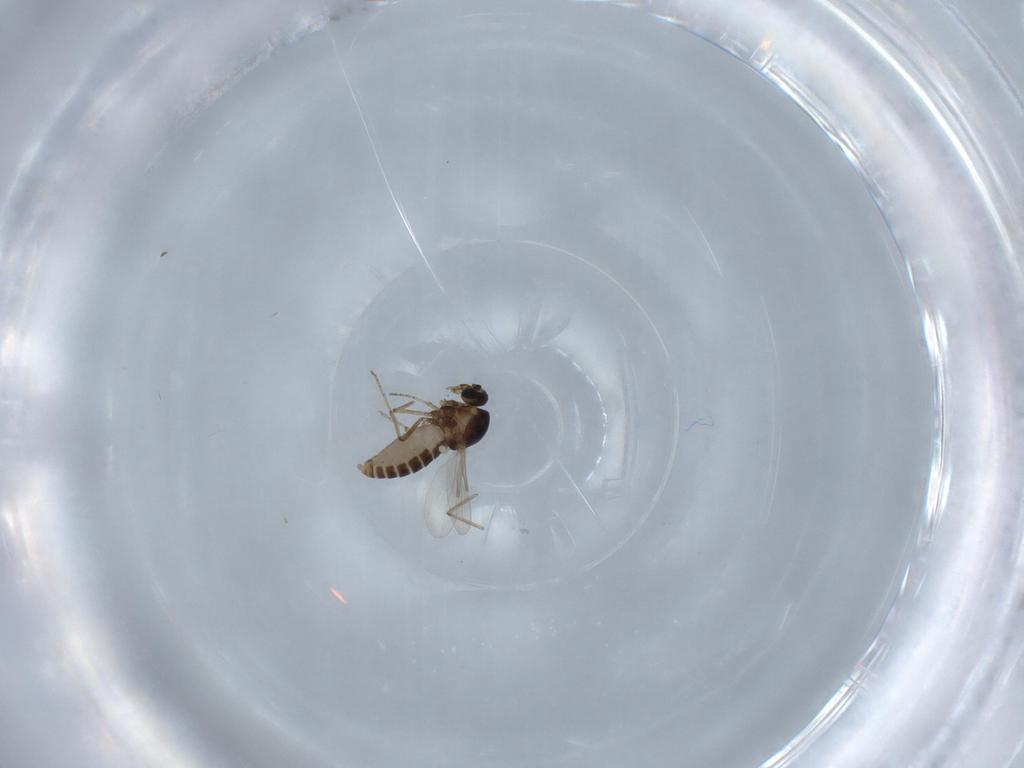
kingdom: Animalia
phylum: Arthropoda
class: Insecta
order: Diptera
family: Ceratopogonidae
